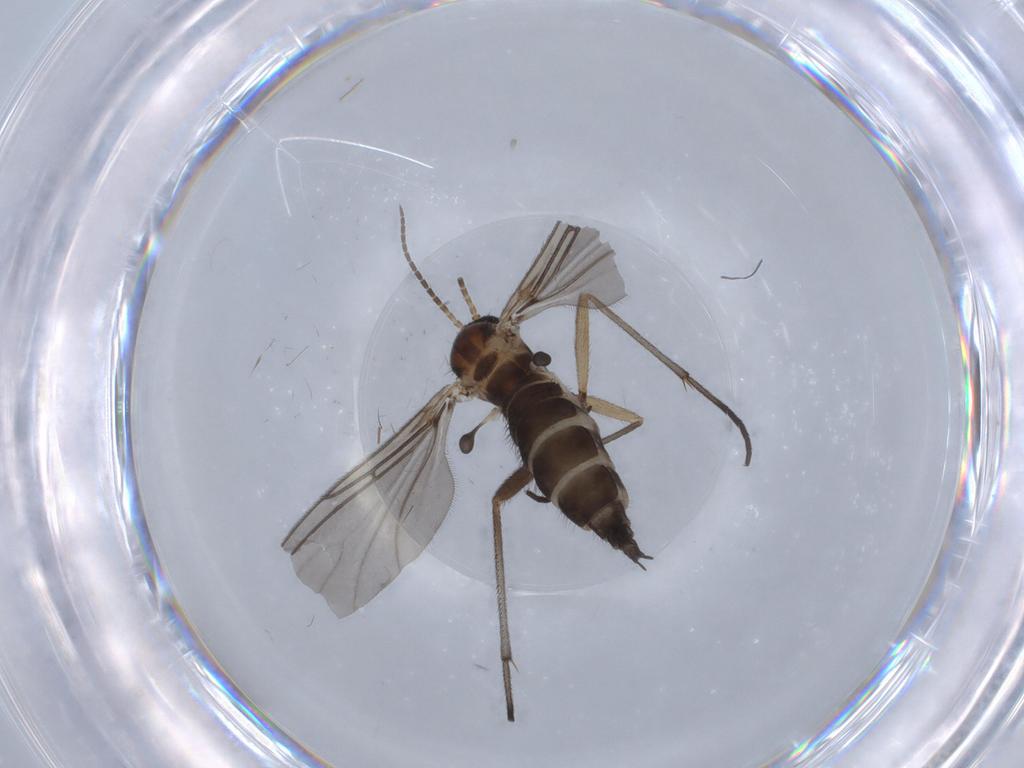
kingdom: Animalia
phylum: Arthropoda
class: Insecta
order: Diptera
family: Sciaridae
